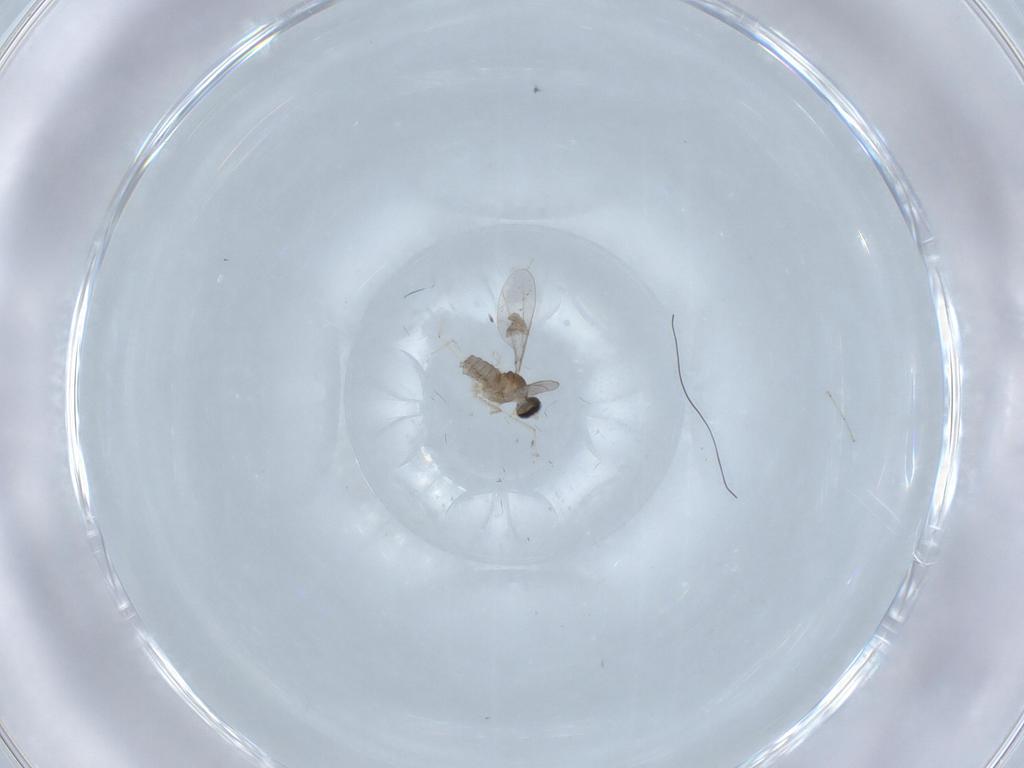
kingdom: Animalia
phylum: Arthropoda
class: Insecta
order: Diptera
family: Cecidomyiidae
